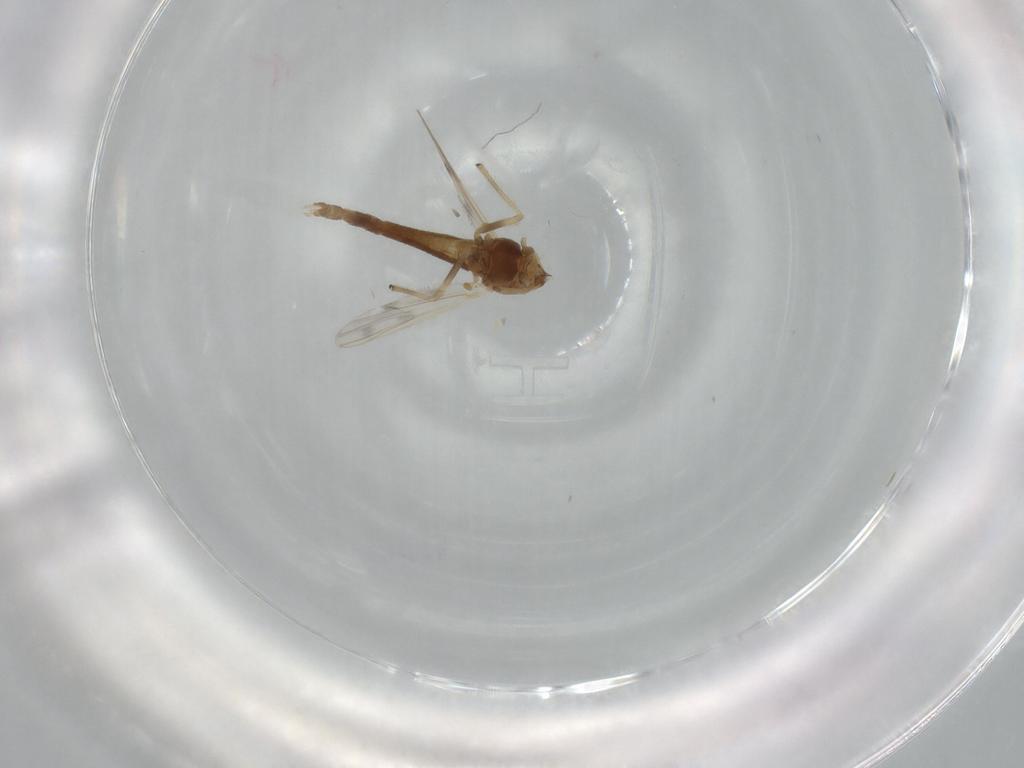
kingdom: Animalia
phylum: Arthropoda
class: Insecta
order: Diptera
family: Chironomidae
